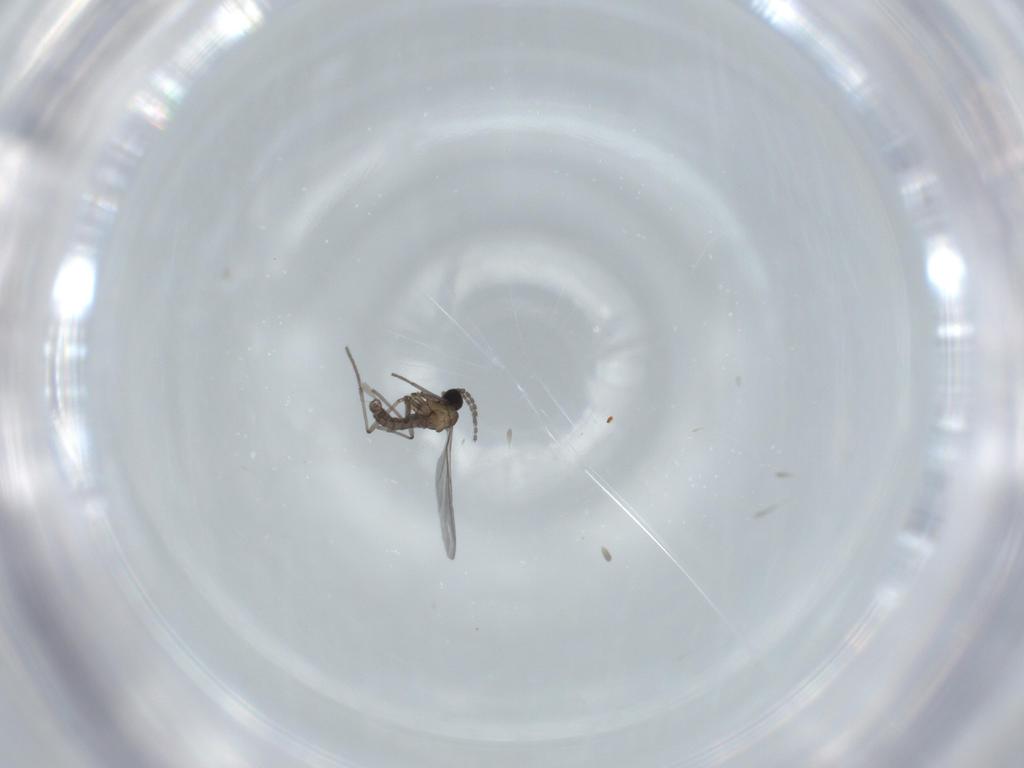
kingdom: Animalia
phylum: Arthropoda
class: Insecta
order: Diptera
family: Sciaridae
